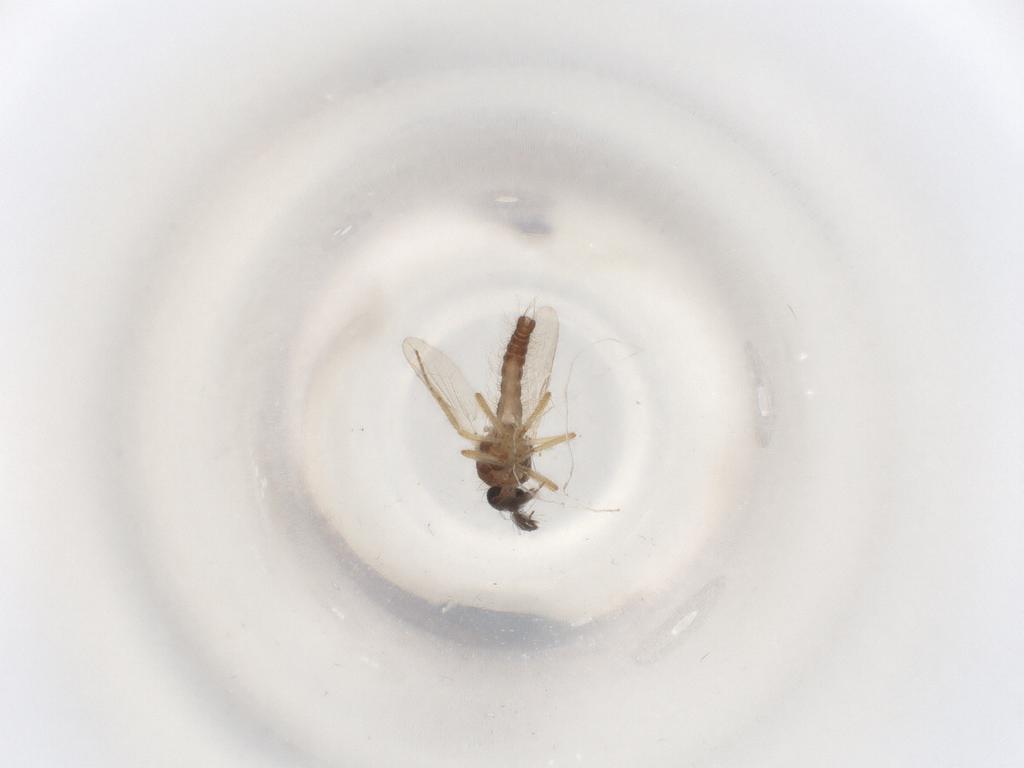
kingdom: Animalia
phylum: Arthropoda
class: Insecta
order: Diptera
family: Ceratopogonidae
